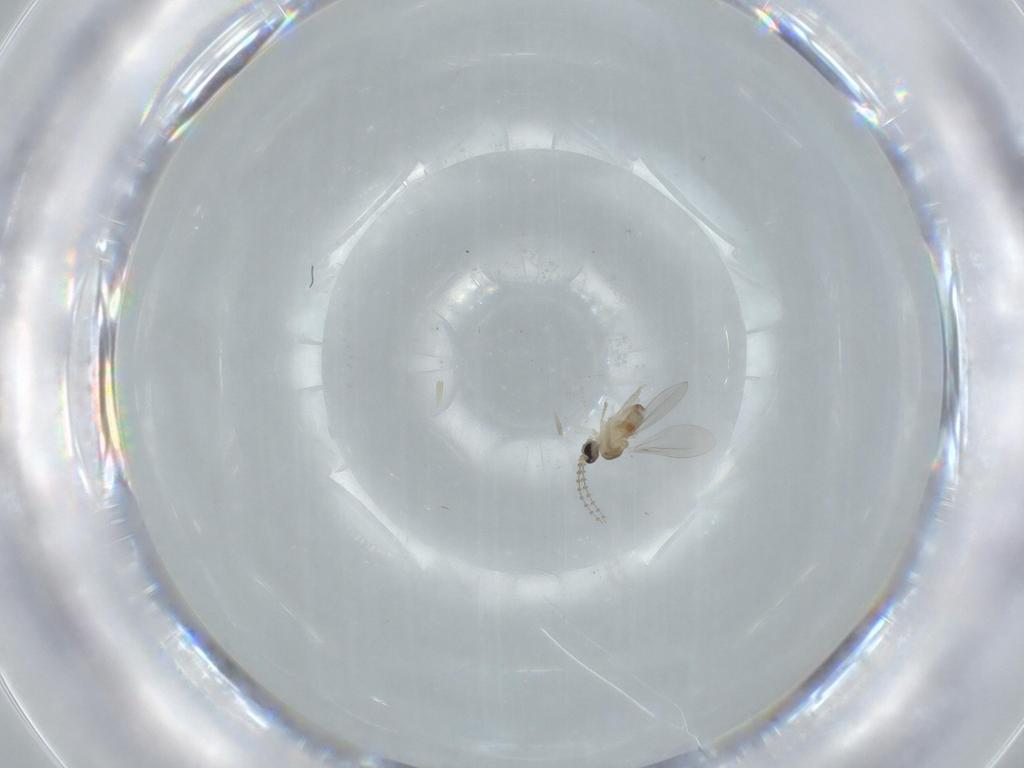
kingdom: Animalia
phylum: Arthropoda
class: Insecta
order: Diptera
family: Cecidomyiidae
